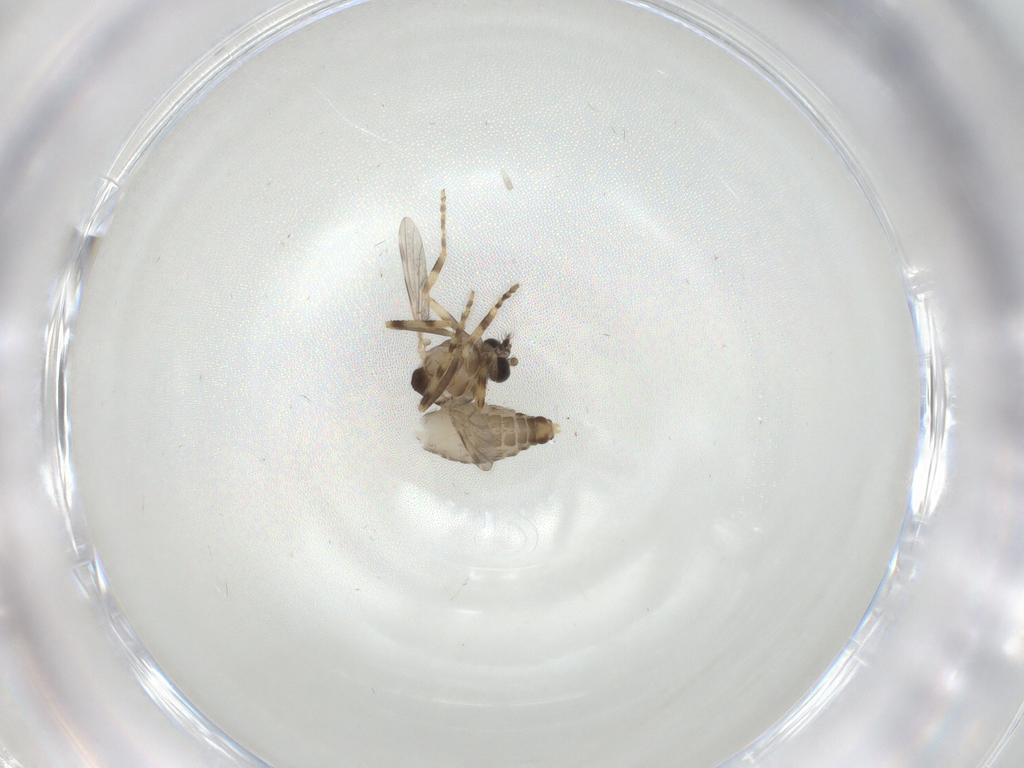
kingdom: Animalia
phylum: Arthropoda
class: Insecta
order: Diptera
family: Ceratopogonidae
